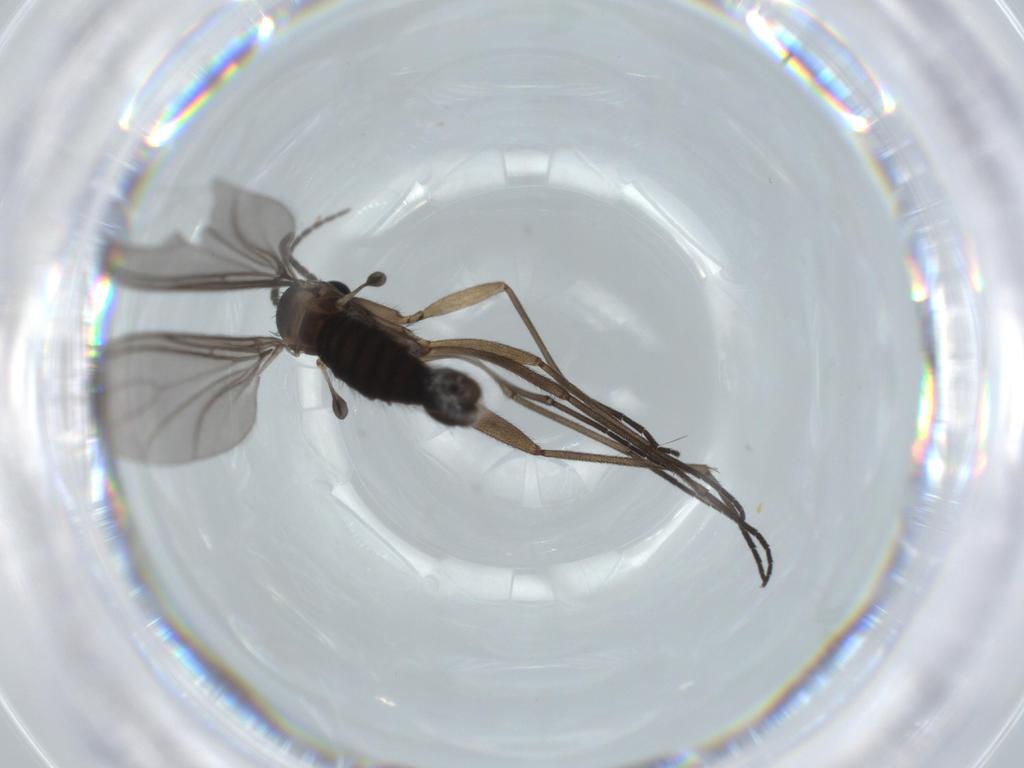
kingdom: Animalia
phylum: Arthropoda
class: Insecta
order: Diptera
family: Sciaridae
